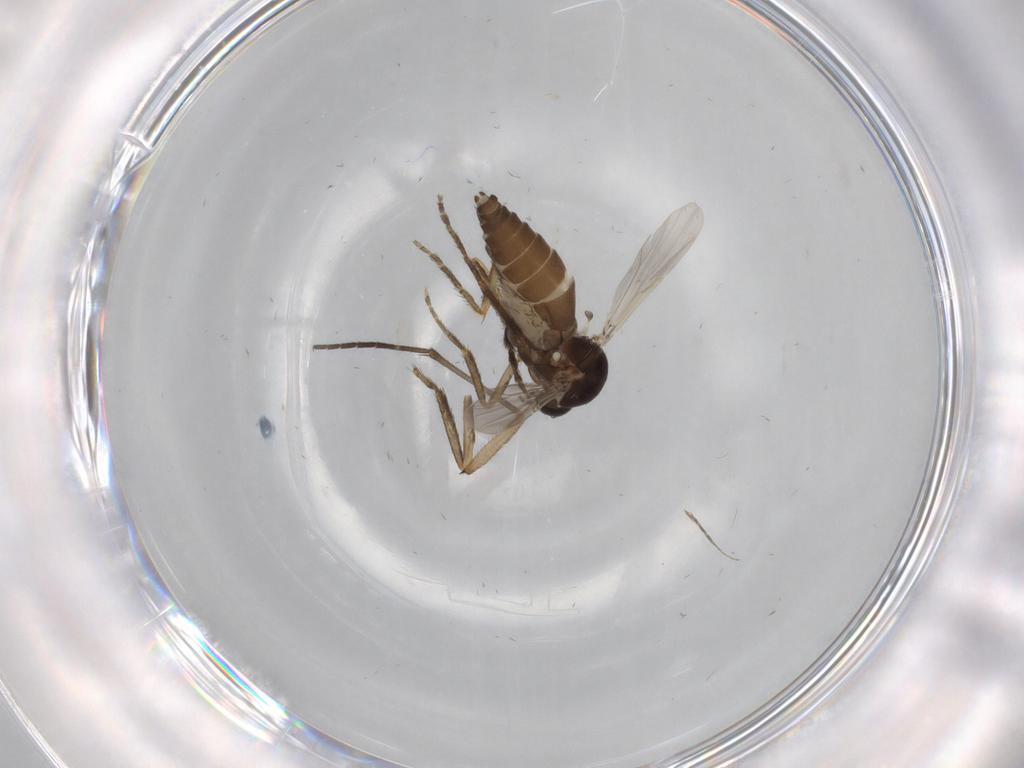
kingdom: Animalia
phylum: Arthropoda
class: Insecta
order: Diptera
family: Ceratopogonidae
